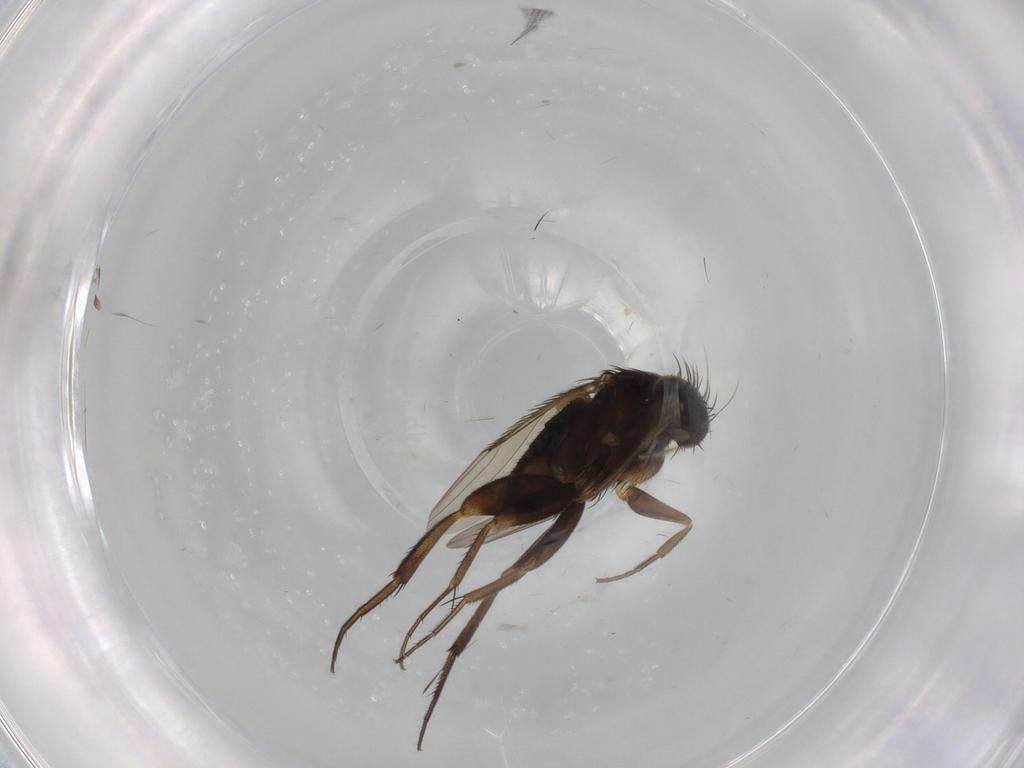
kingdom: Animalia
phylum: Arthropoda
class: Insecta
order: Diptera
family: Phoridae
